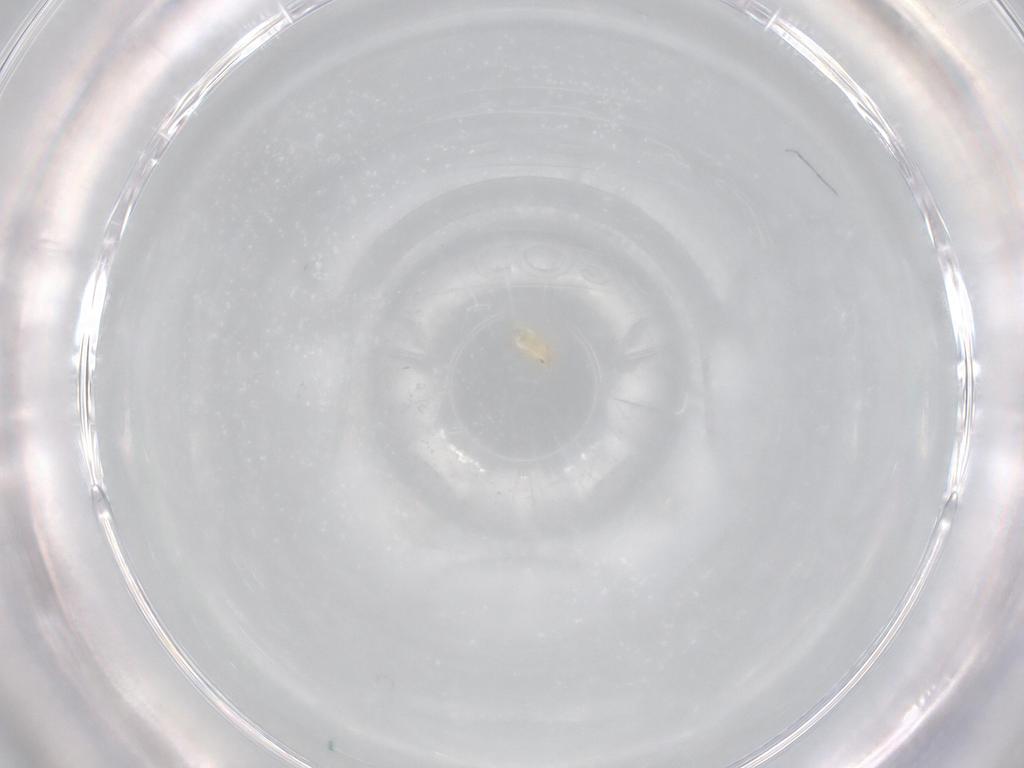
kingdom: Animalia
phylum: Arthropoda
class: Arachnida
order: Mesostigmata
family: Ascidae
